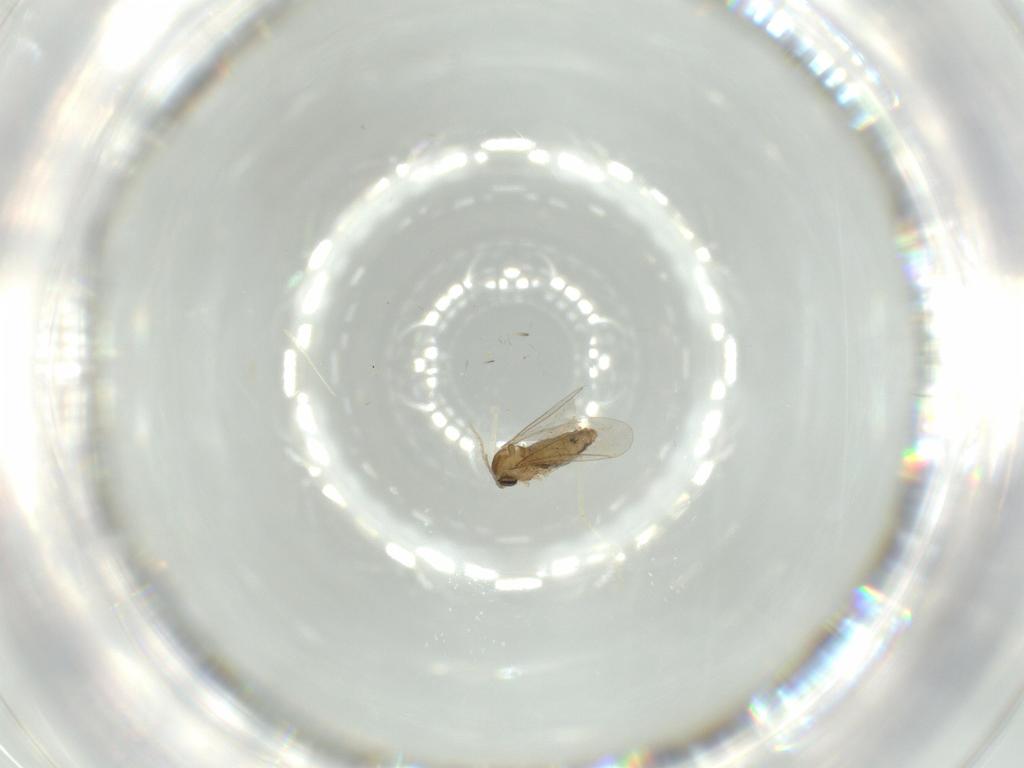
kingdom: Animalia
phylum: Arthropoda
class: Insecta
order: Diptera
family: Cecidomyiidae
